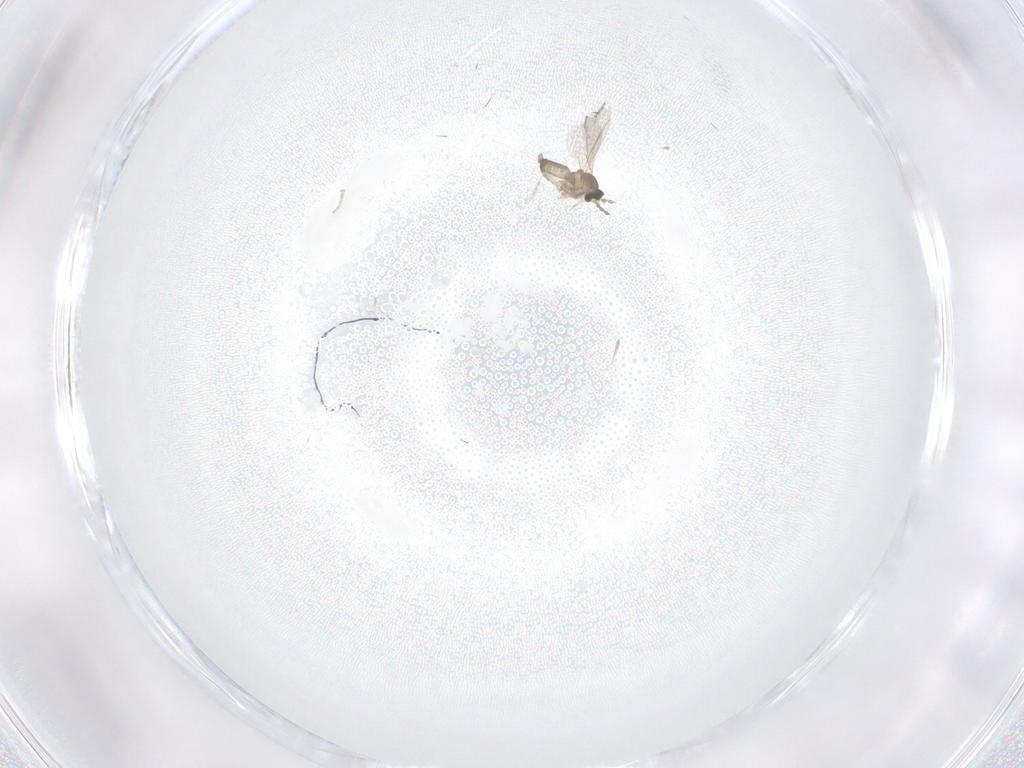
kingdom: Animalia
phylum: Arthropoda
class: Insecta
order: Diptera
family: Cecidomyiidae
